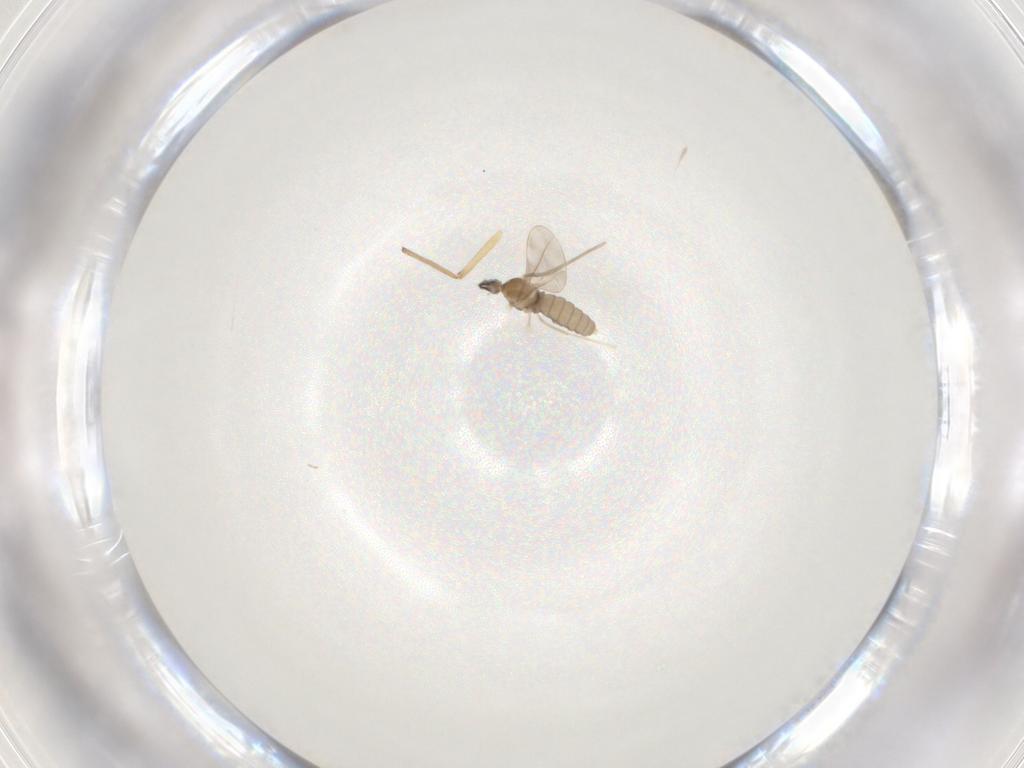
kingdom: Animalia
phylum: Arthropoda
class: Insecta
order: Diptera
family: Cecidomyiidae
